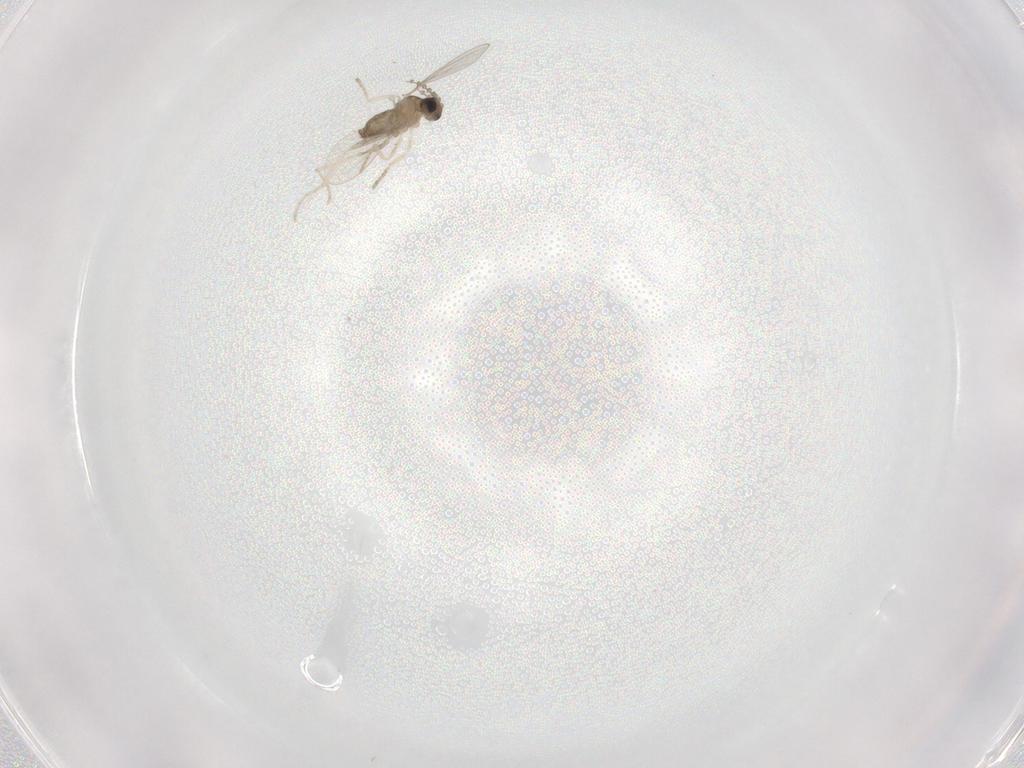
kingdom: Animalia
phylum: Arthropoda
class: Insecta
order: Diptera
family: Cecidomyiidae
